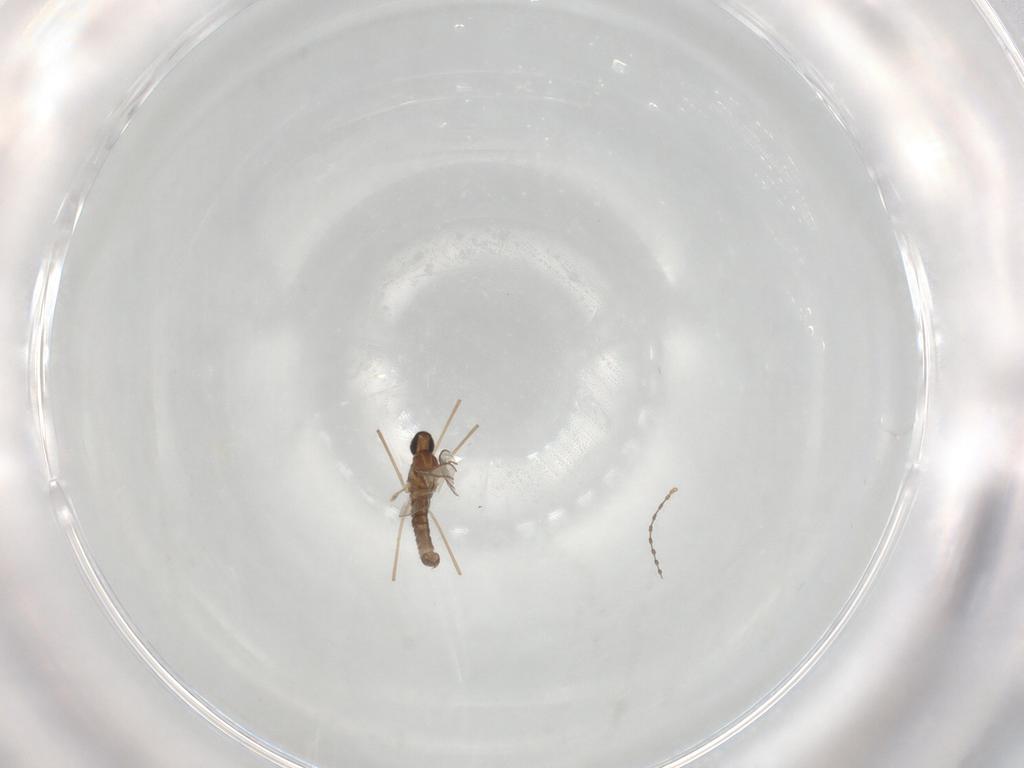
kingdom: Animalia
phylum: Arthropoda
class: Insecta
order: Diptera
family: Cecidomyiidae
